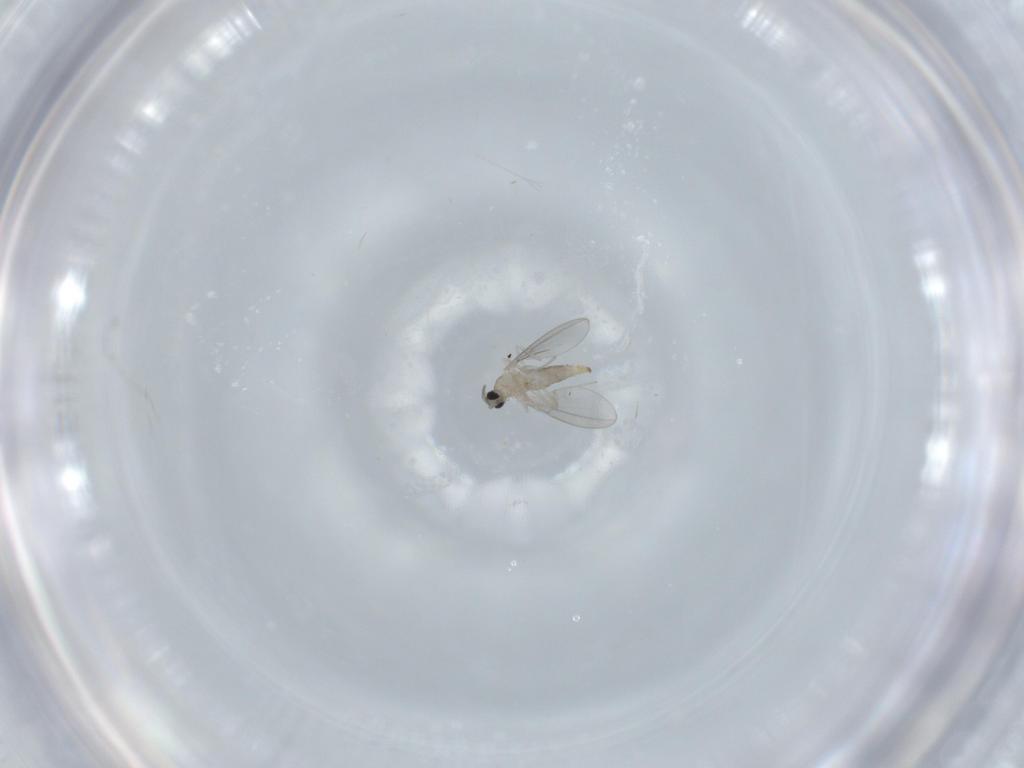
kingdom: Animalia
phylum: Arthropoda
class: Insecta
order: Diptera
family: Cecidomyiidae
